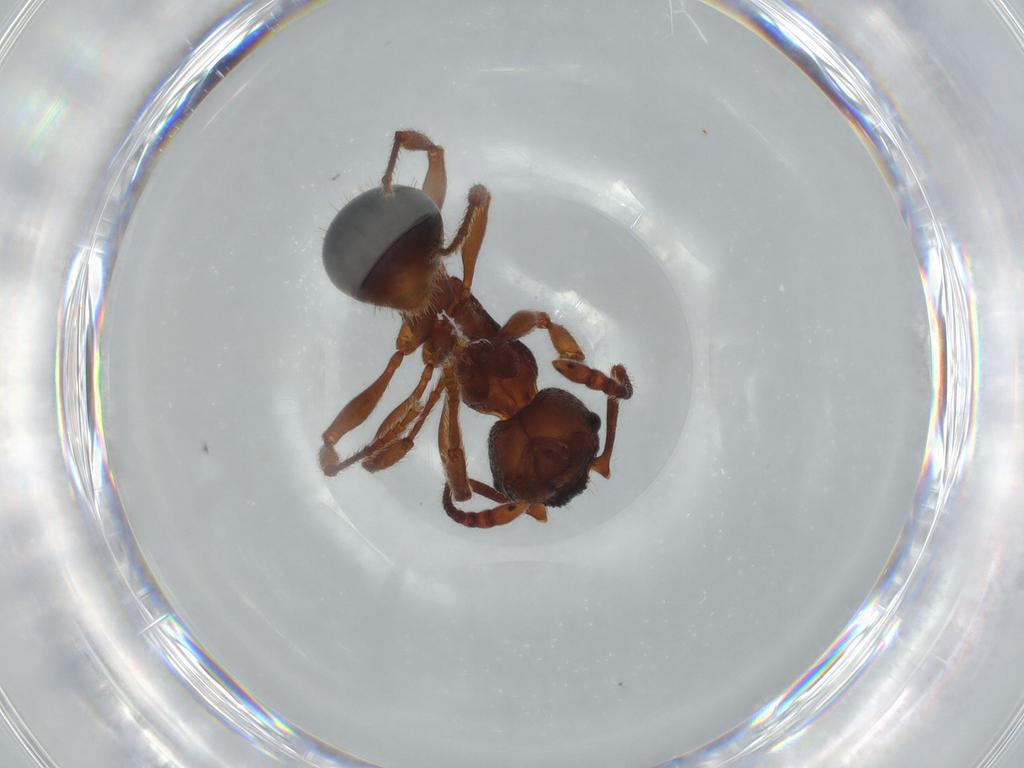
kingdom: Animalia
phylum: Arthropoda
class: Insecta
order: Hymenoptera
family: Formicidae
